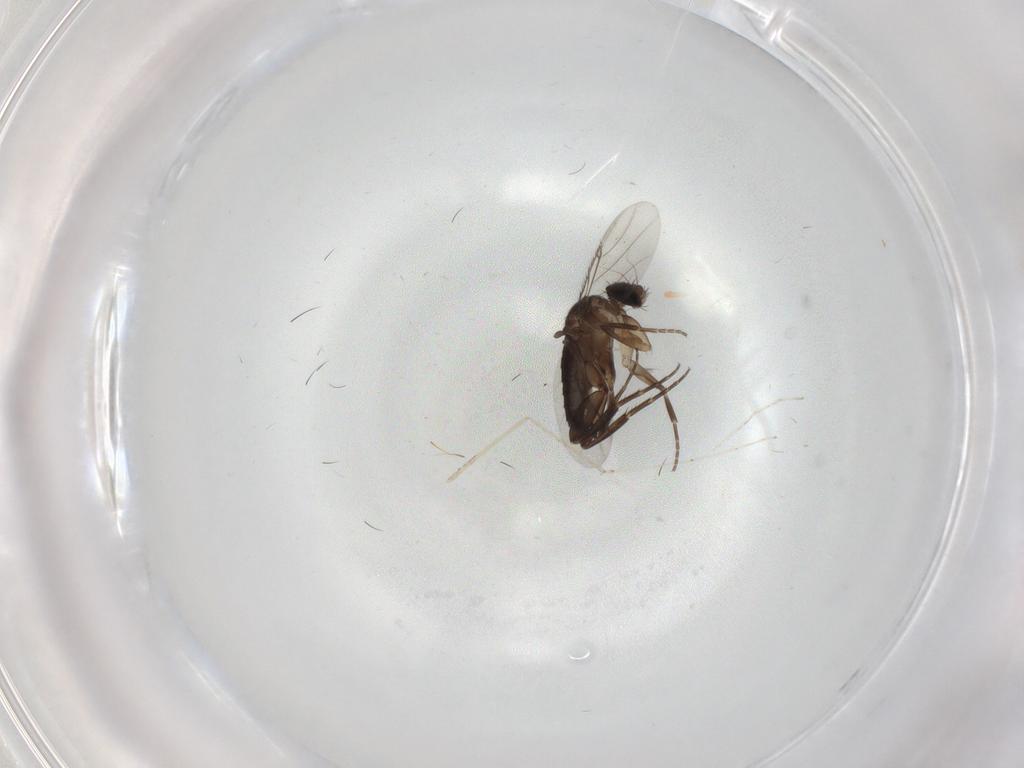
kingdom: Animalia
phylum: Arthropoda
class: Insecta
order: Diptera
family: Phoridae
